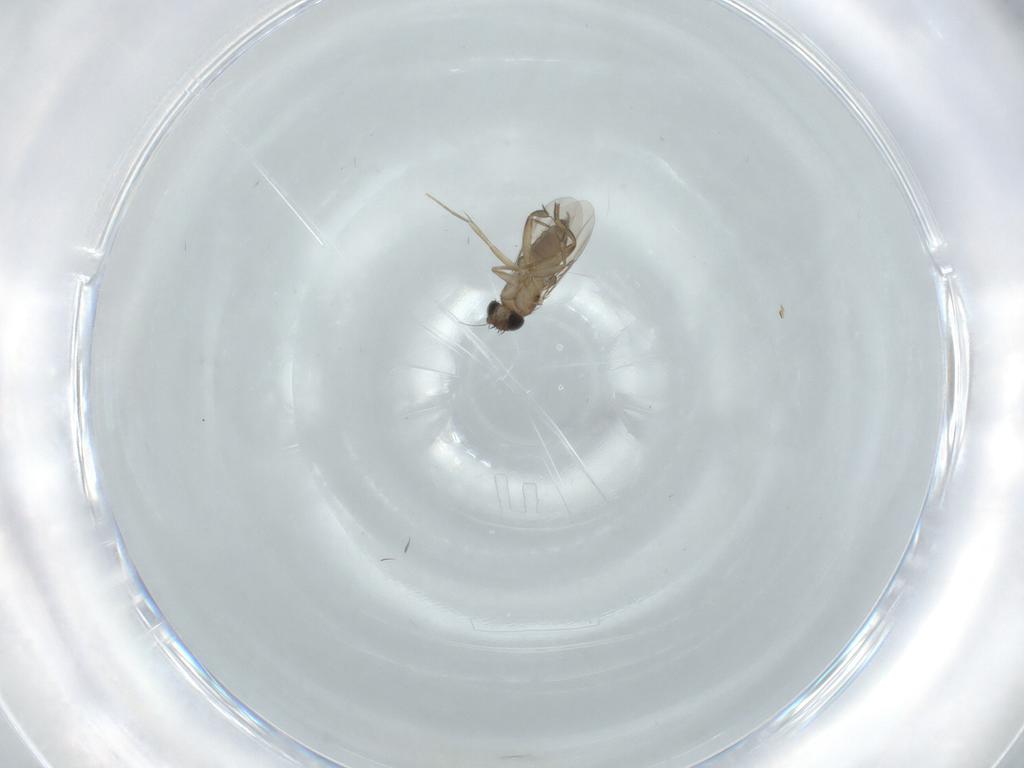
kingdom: Animalia
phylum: Arthropoda
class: Insecta
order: Diptera
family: Phoridae
